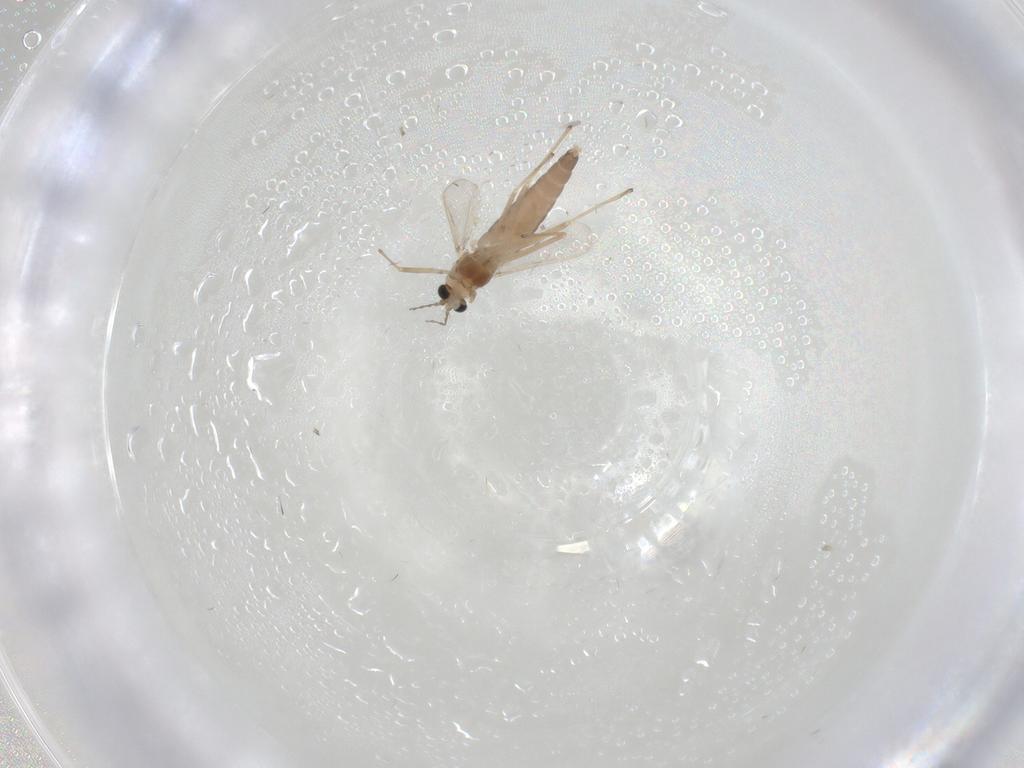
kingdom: Animalia
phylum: Arthropoda
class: Insecta
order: Diptera
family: Chironomidae
